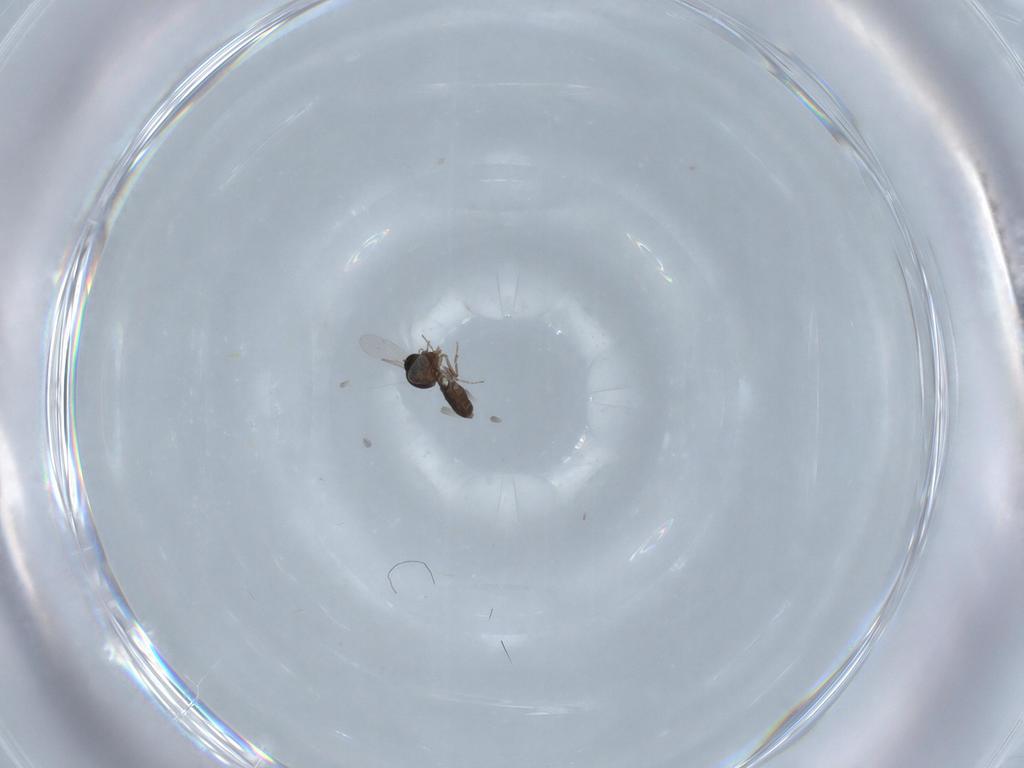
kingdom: Animalia
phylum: Arthropoda
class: Insecta
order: Diptera
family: Ceratopogonidae
